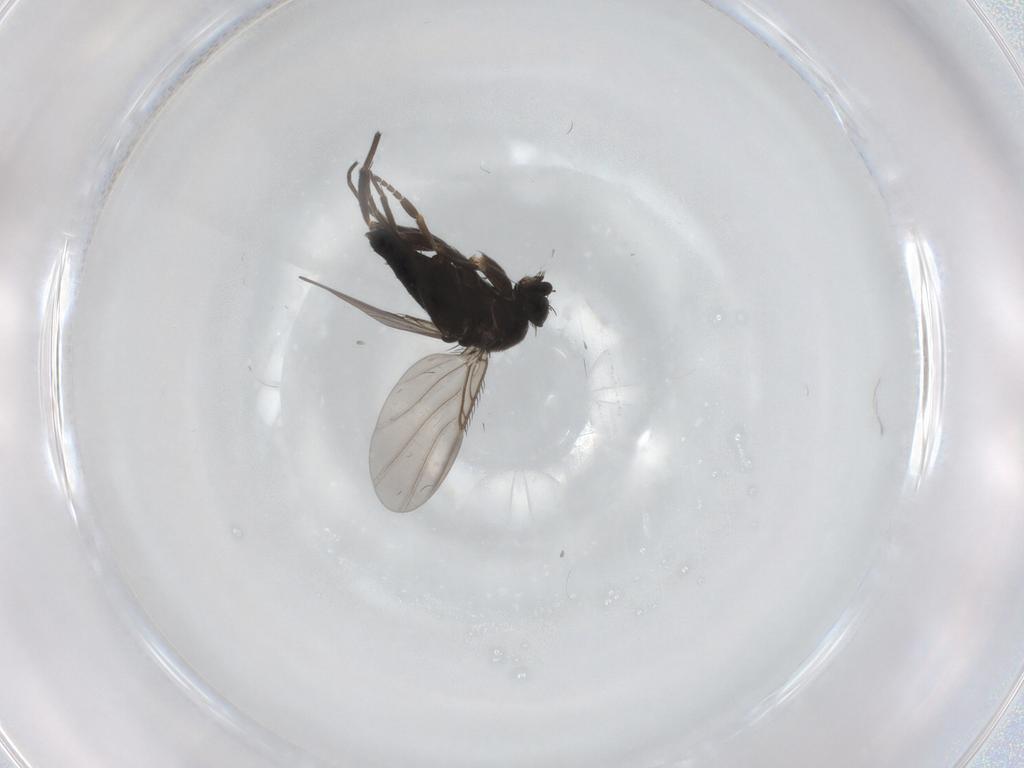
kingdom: Animalia
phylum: Arthropoda
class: Insecta
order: Diptera
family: Phoridae
